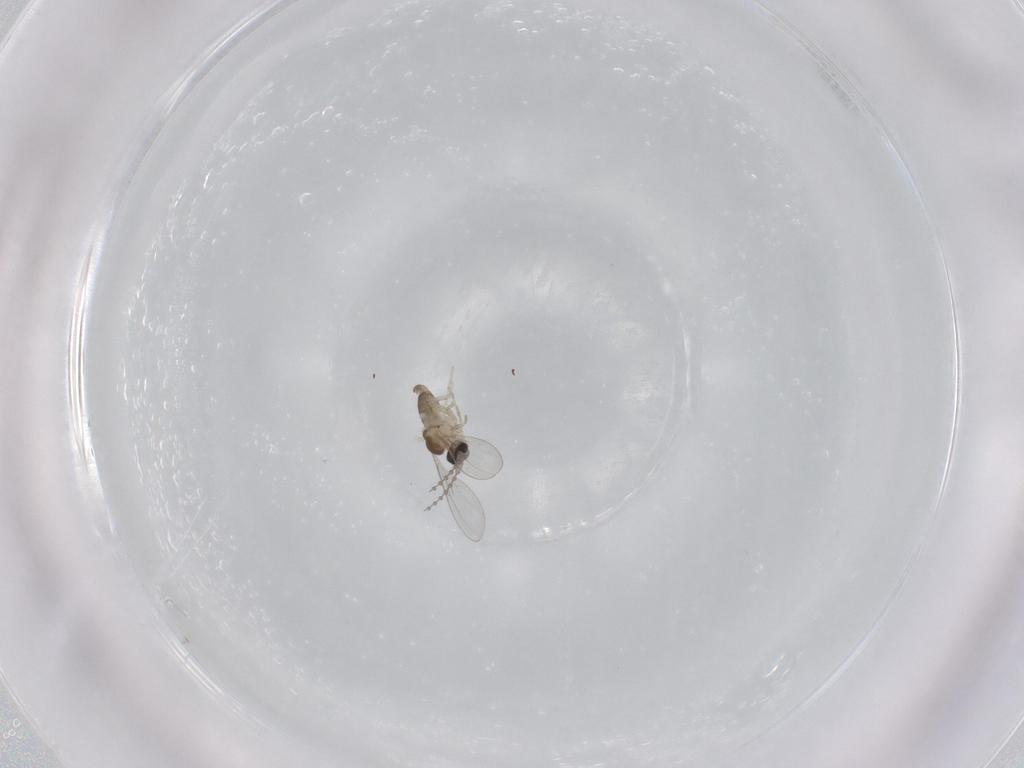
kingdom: Animalia
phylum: Arthropoda
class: Insecta
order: Diptera
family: Cecidomyiidae
